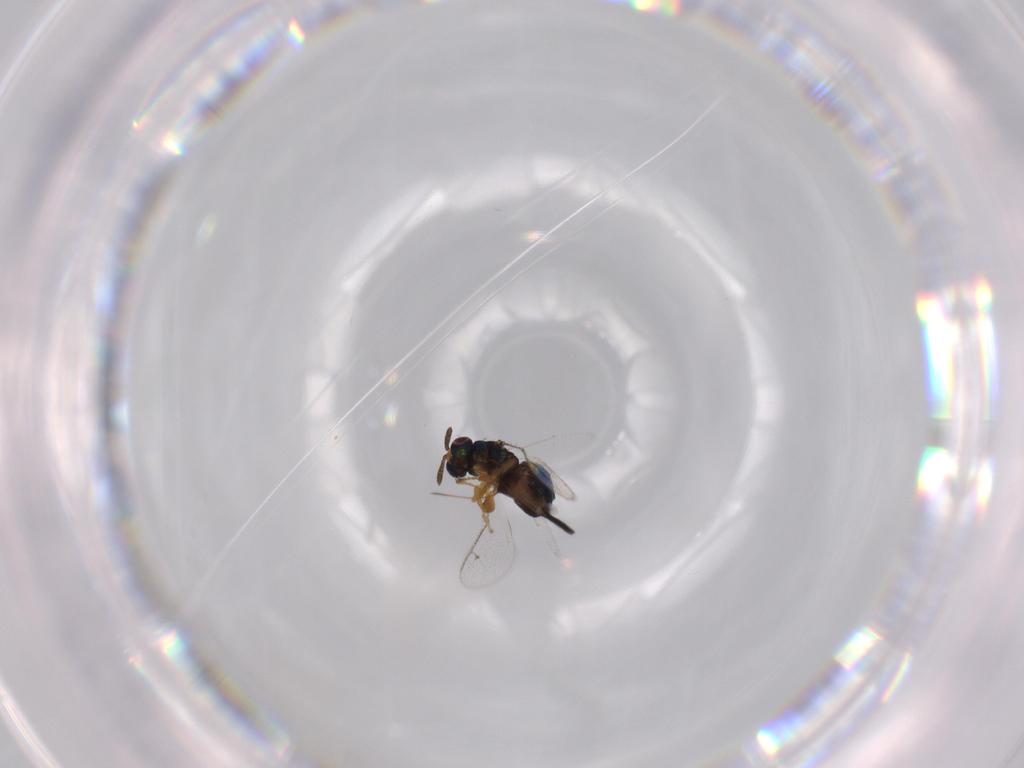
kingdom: Animalia
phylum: Arthropoda
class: Insecta
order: Hymenoptera
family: Torymidae
